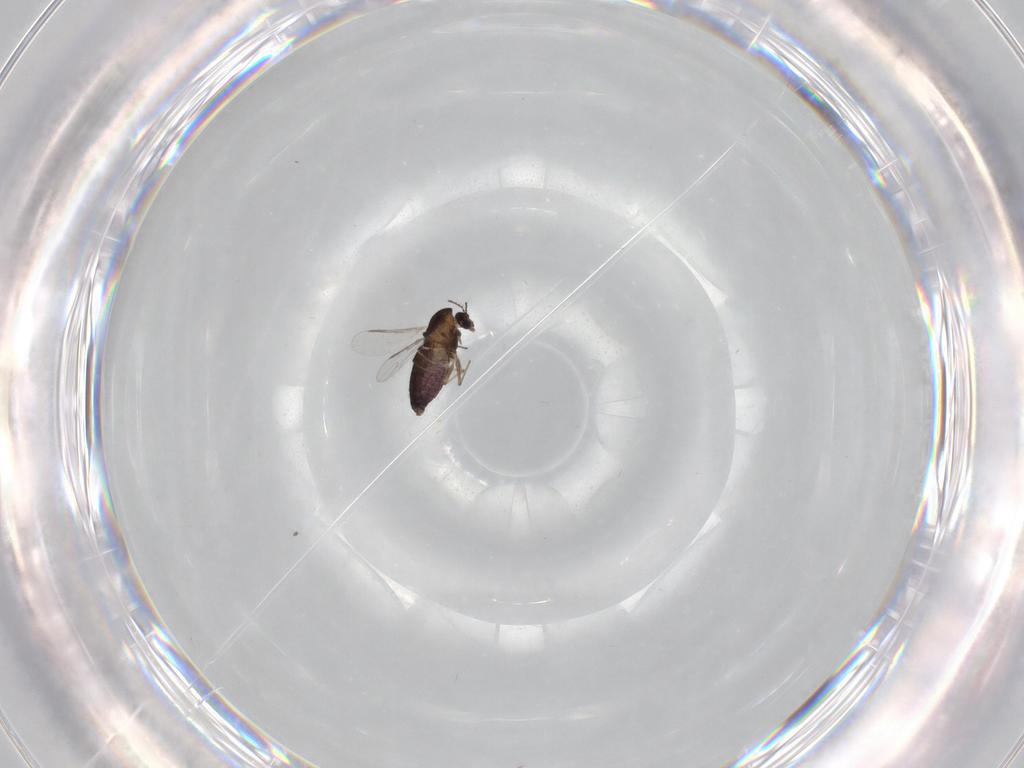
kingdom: Animalia
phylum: Arthropoda
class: Insecta
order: Diptera
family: Chironomidae
